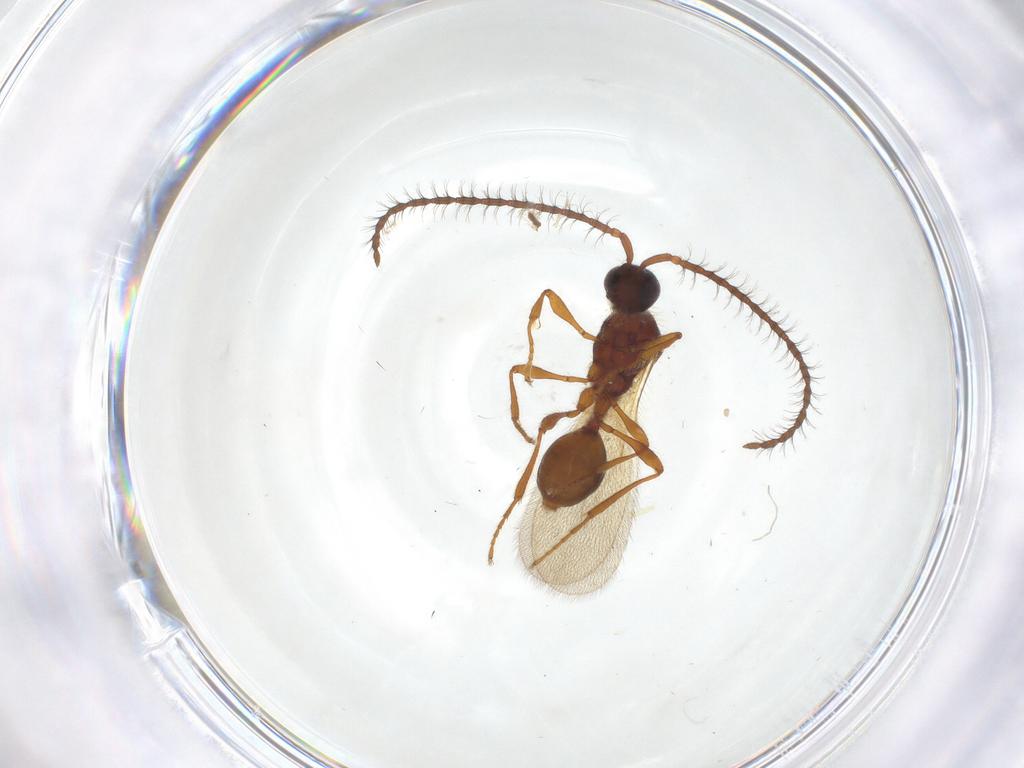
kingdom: Animalia
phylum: Arthropoda
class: Insecta
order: Hymenoptera
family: Diapriidae
